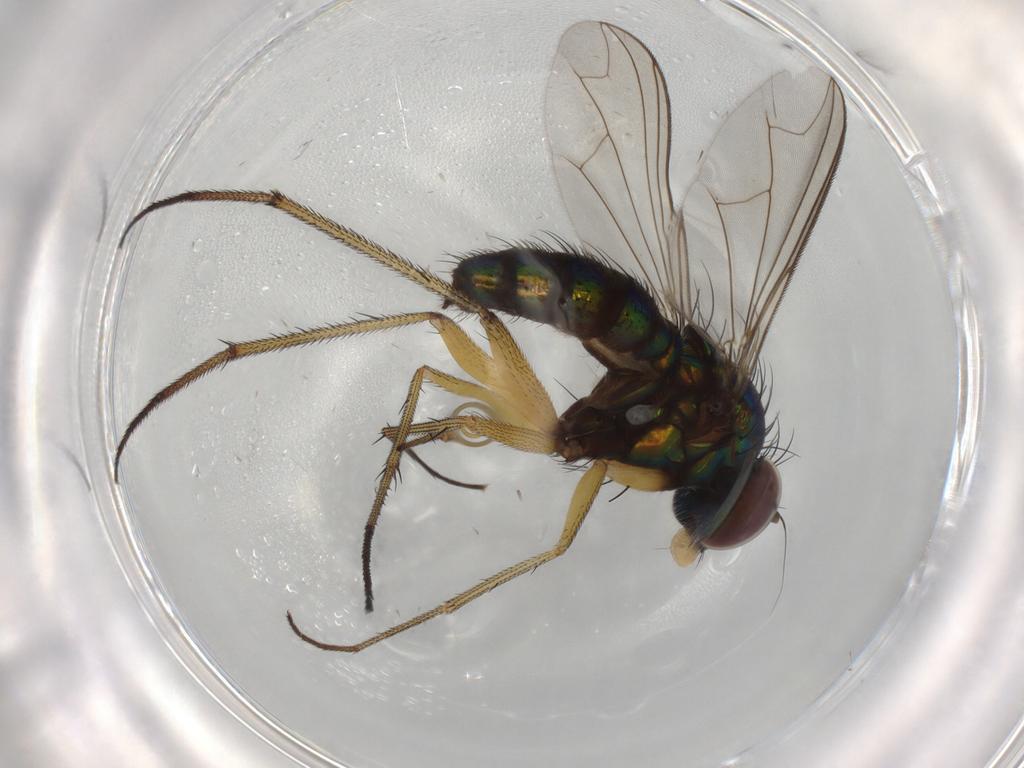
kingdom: Animalia
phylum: Arthropoda
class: Insecta
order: Diptera
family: Dolichopodidae
